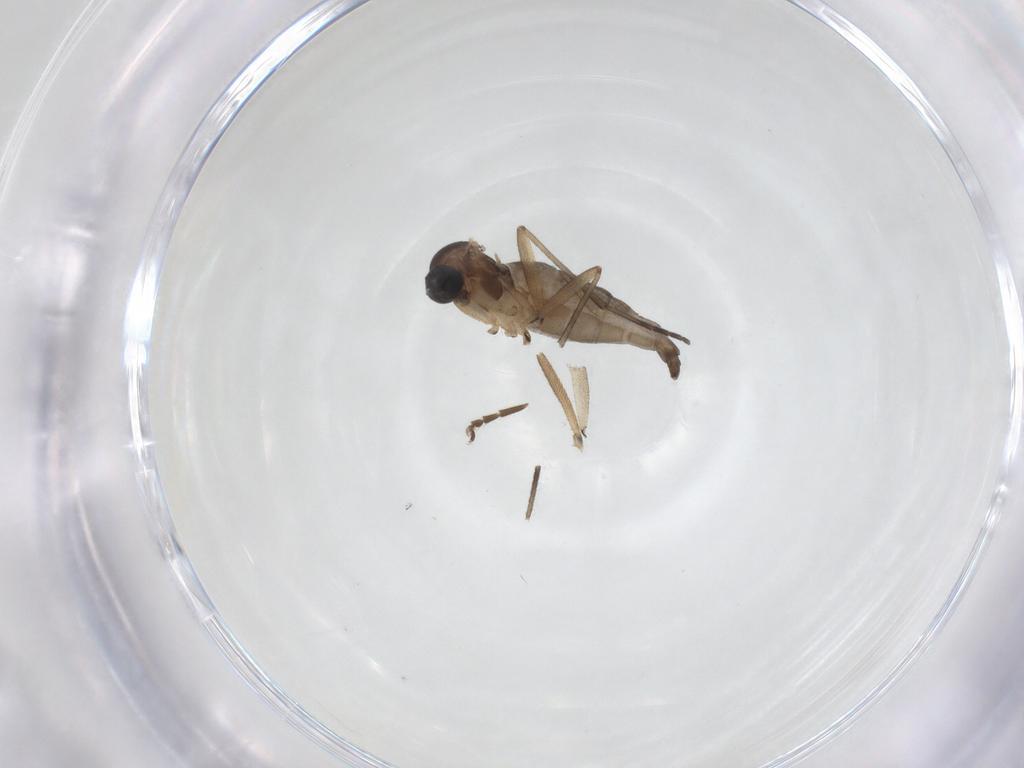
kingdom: Animalia
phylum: Arthropoda
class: Insecta
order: Diptera
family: Sciaridae
